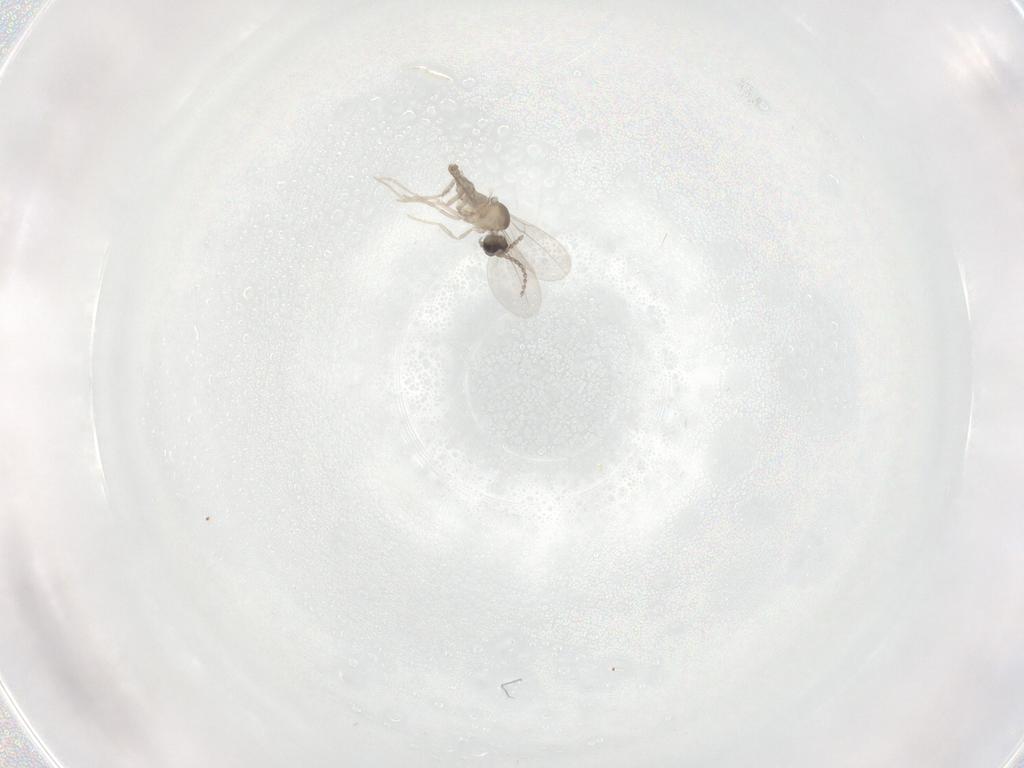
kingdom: Animalia
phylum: Arthropoda
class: Insecta
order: Diptera
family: Cecidomyiidae
